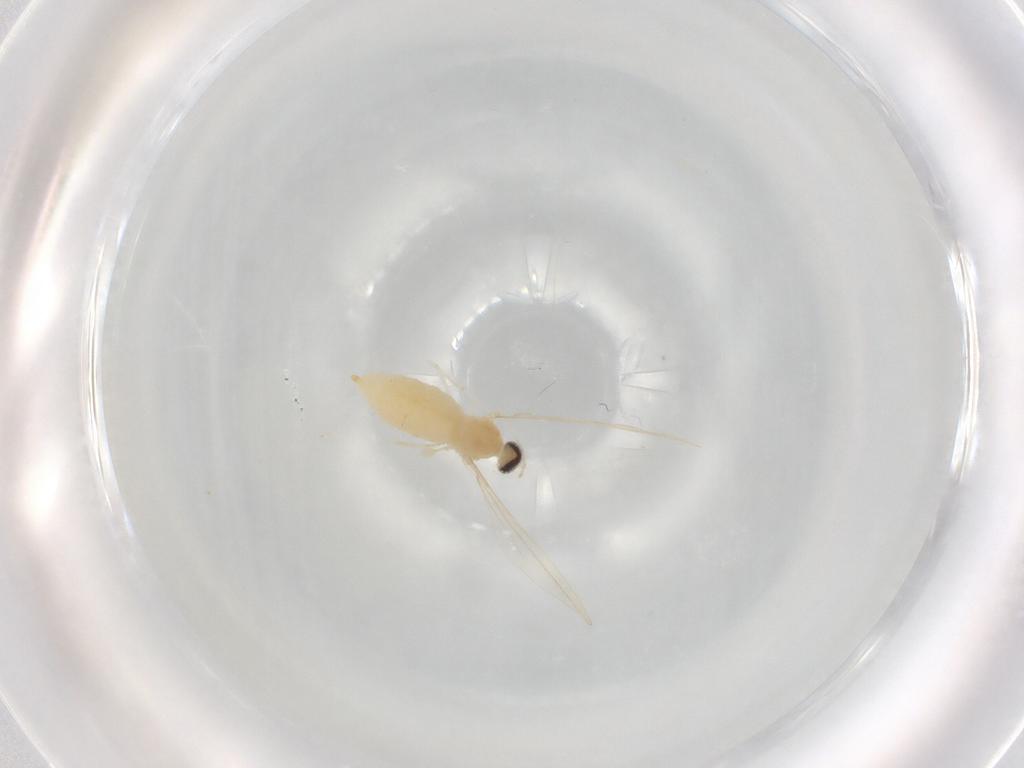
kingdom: Animalia
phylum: Arthropoda
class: Insecta
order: Diptera
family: Cecidomyiidae
